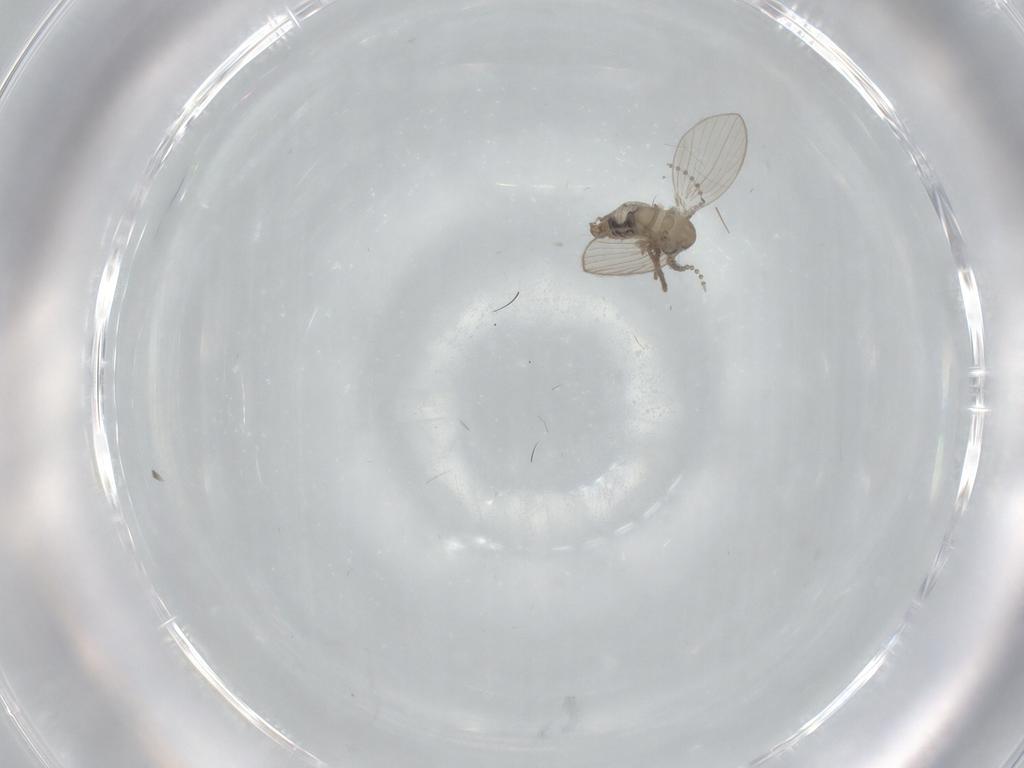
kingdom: Animalia
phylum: Arthropoda
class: Insecta
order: Diptera
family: Psychodidae
